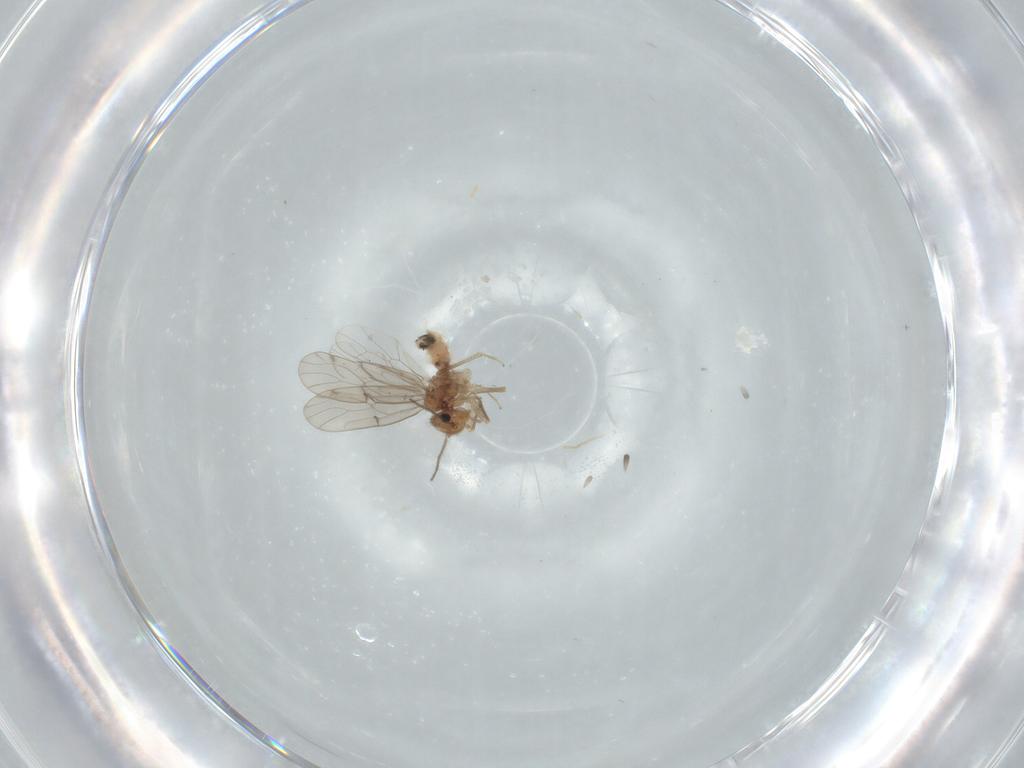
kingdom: Animalia
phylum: Arthropoda
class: Insecta
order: Psocodea
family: Ectopsocidae
